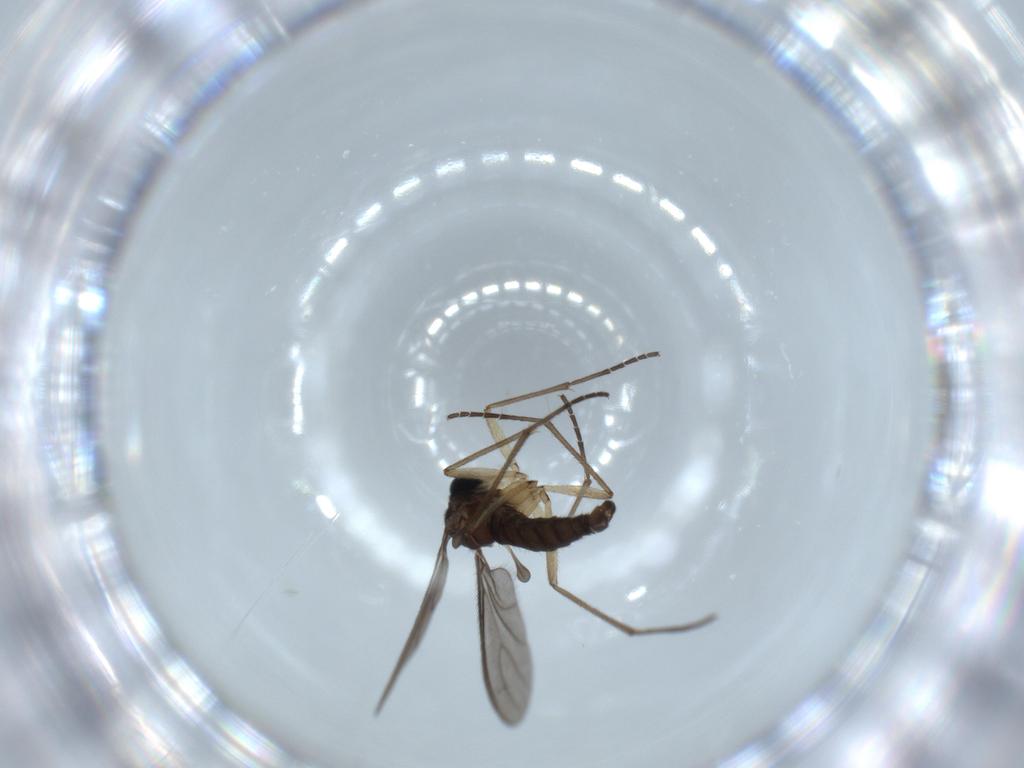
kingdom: Animalia
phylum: Arthropoda
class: Insecta
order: Diptera
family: Sciaridae
